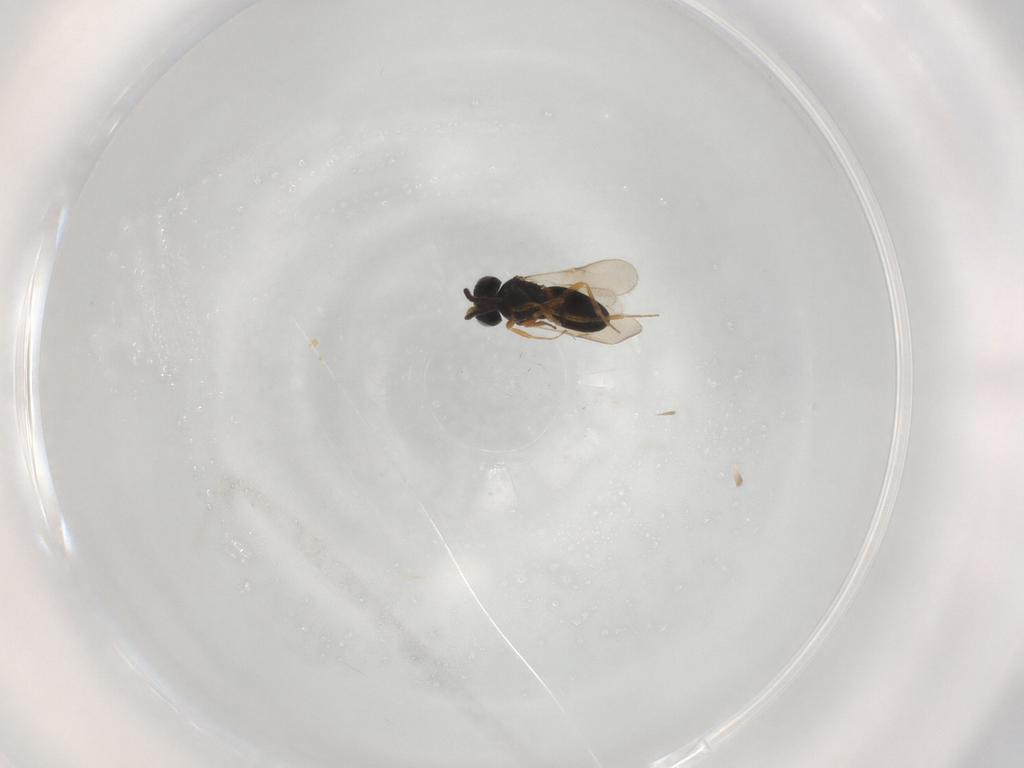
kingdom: Animalia
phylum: Arthropoda
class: Insecta
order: Hymenoptera
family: Scelionidae
